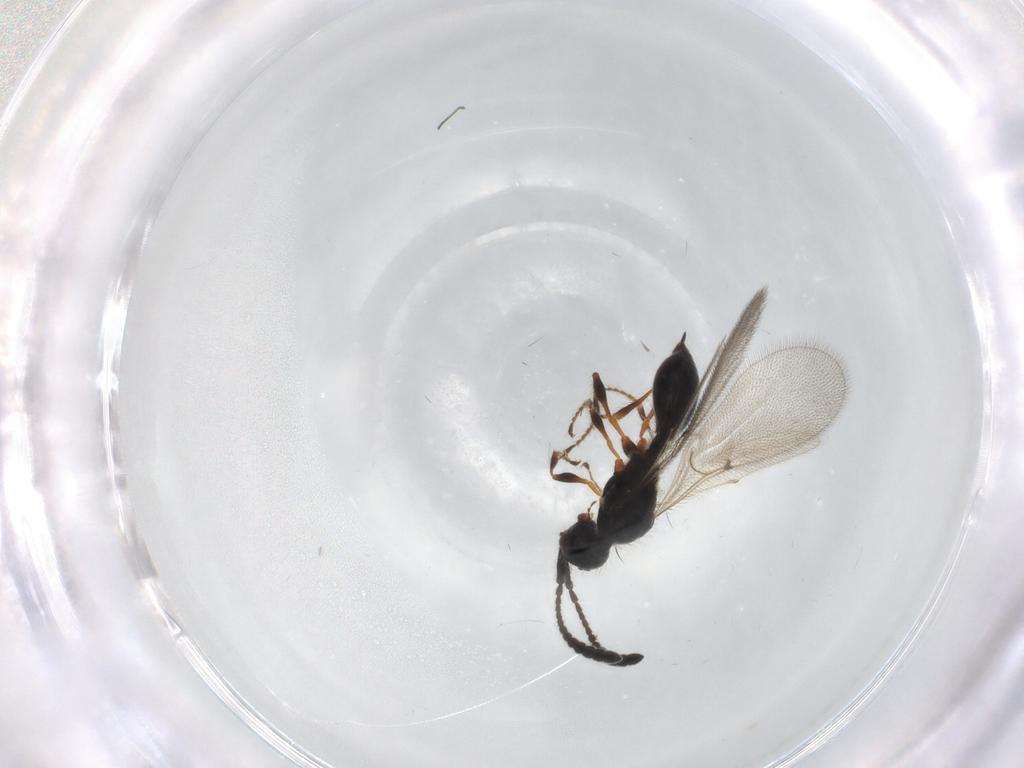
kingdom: Animalia
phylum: Arthropoda
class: Insecta
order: Hymenoptera
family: Diapriidae
